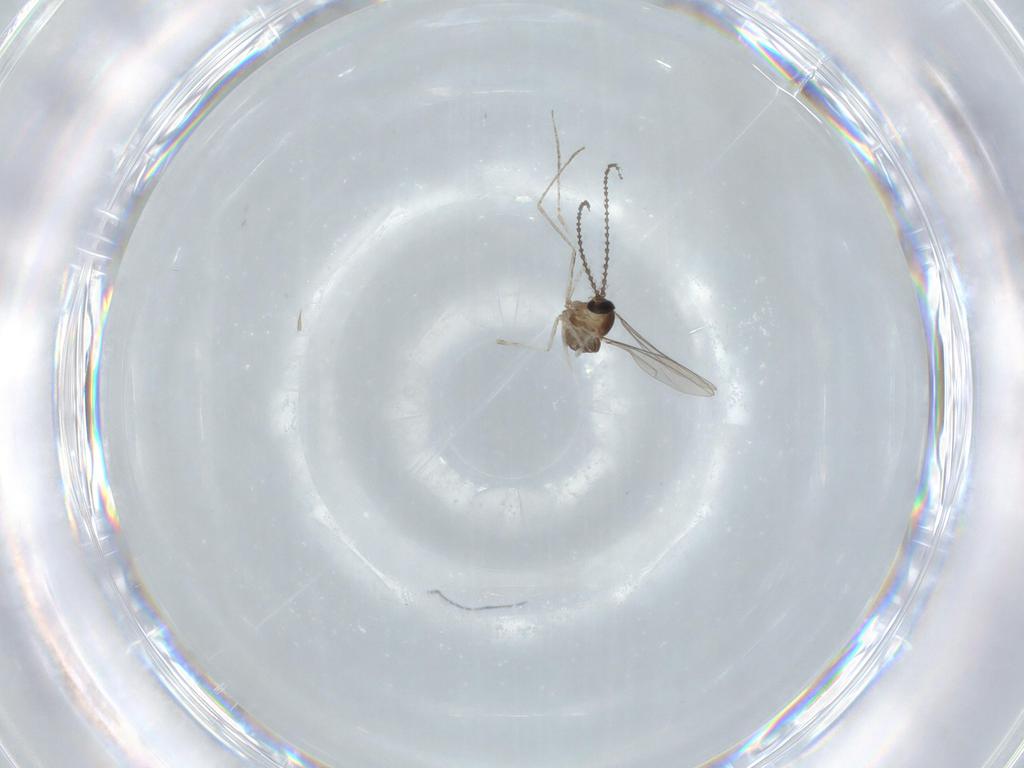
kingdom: Animalia
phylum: Arthropoda
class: Insecta
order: Diptera
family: Cecidomyiidae
